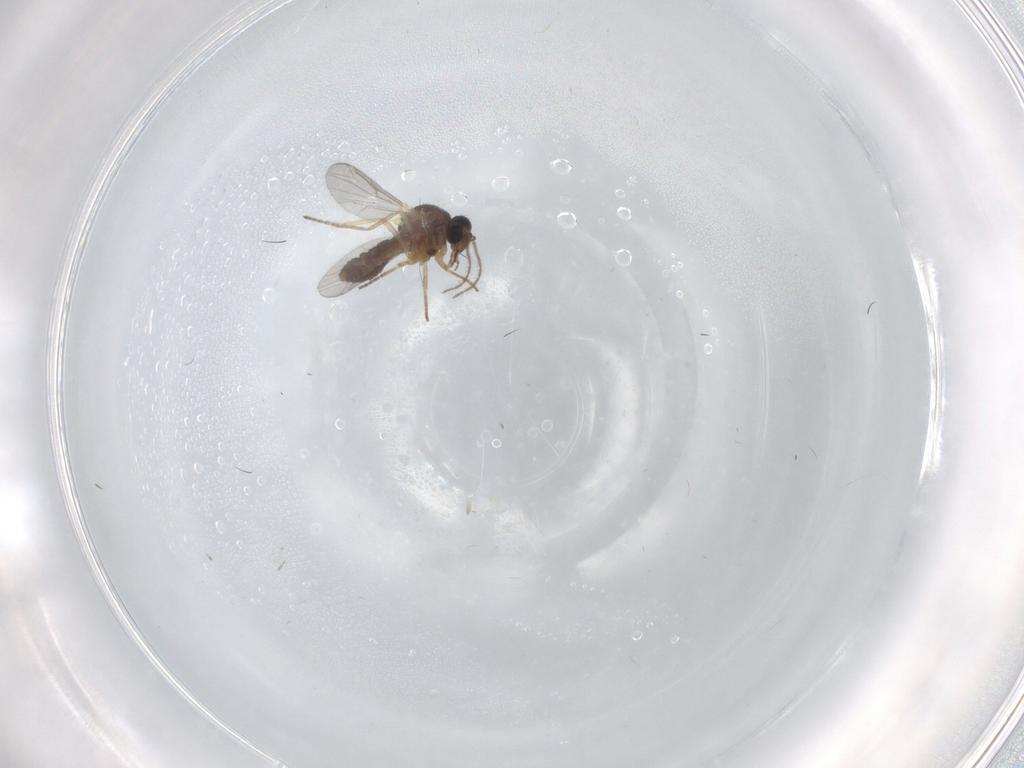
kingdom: Animalia
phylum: Arthropoda
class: Insecta
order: Diptera
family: Ceratopogonidae
